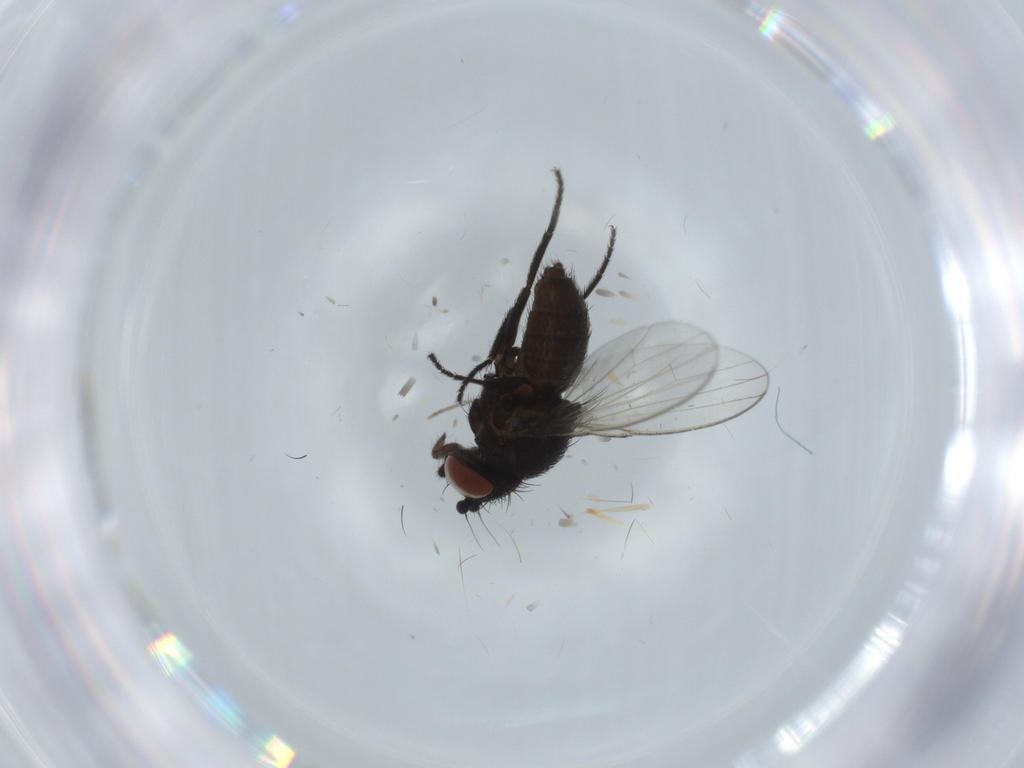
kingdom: Animalia
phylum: Arthropoda
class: Insecta
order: Diptera
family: Milichiidae
